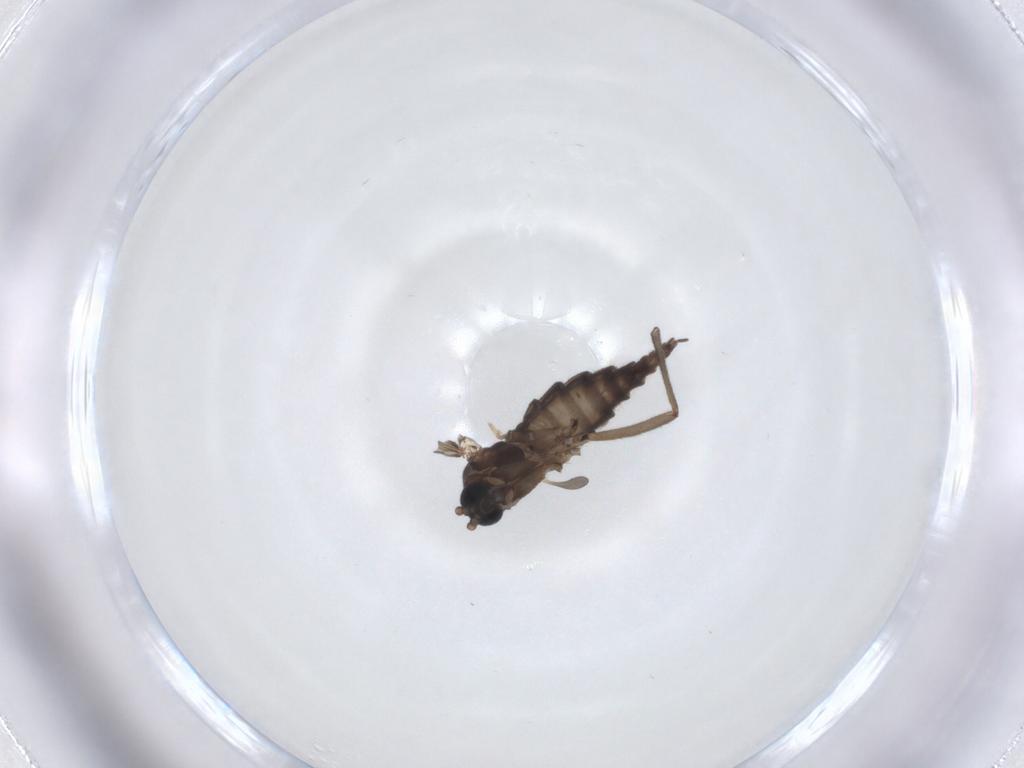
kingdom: Animalia
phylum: Arthropoda
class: Insecta
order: Diptera
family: Sciaridae
